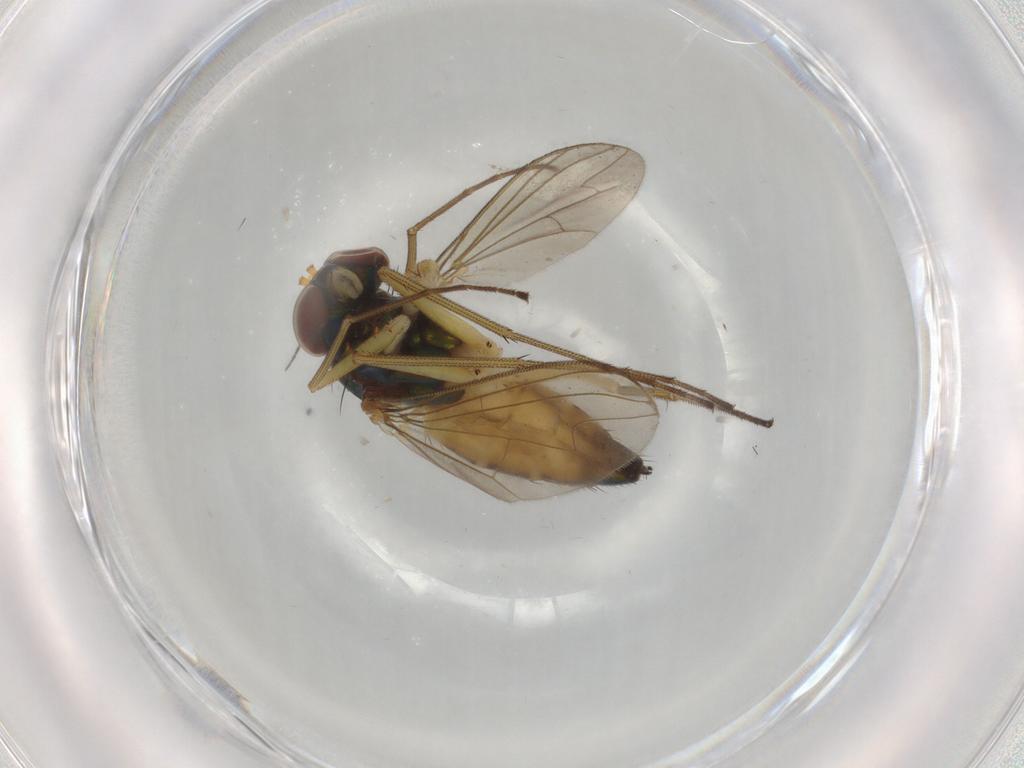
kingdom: Animalia
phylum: Arthropoda
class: Insecta
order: Diptera
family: Dolichopodidae
